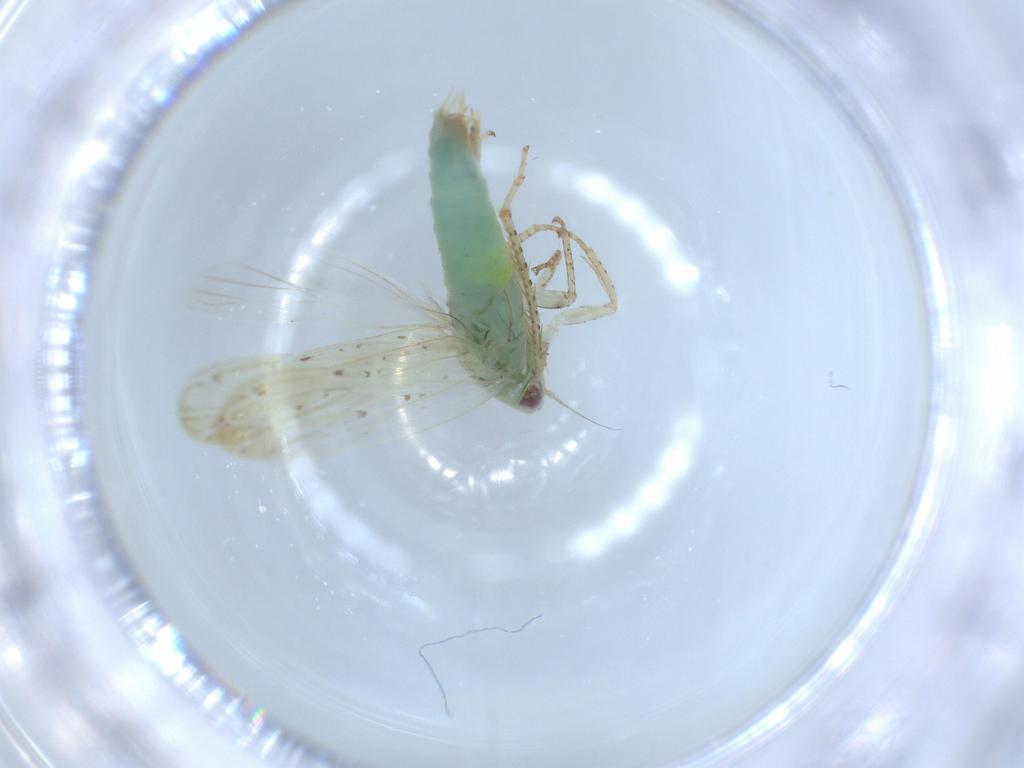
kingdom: Animalia
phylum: Arthropoda
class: Insecta
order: Hemiptera
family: Cicadellidae
